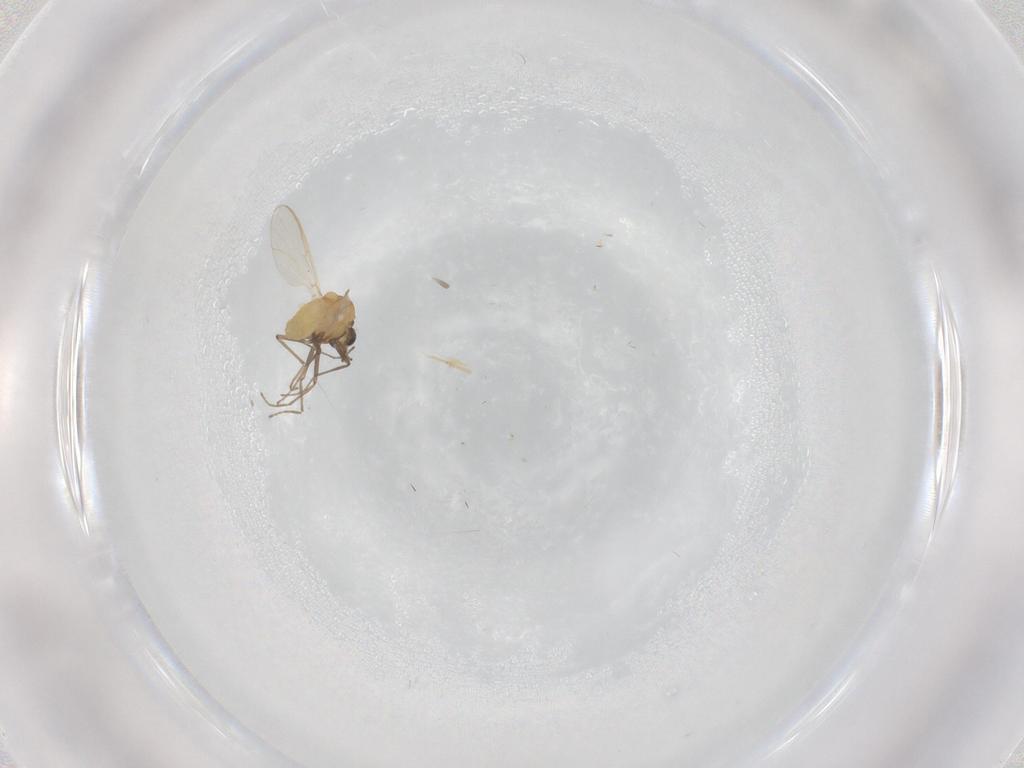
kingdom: Animalia
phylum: Arthropoda
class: Insecta
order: Diptera
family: Chironomidae
